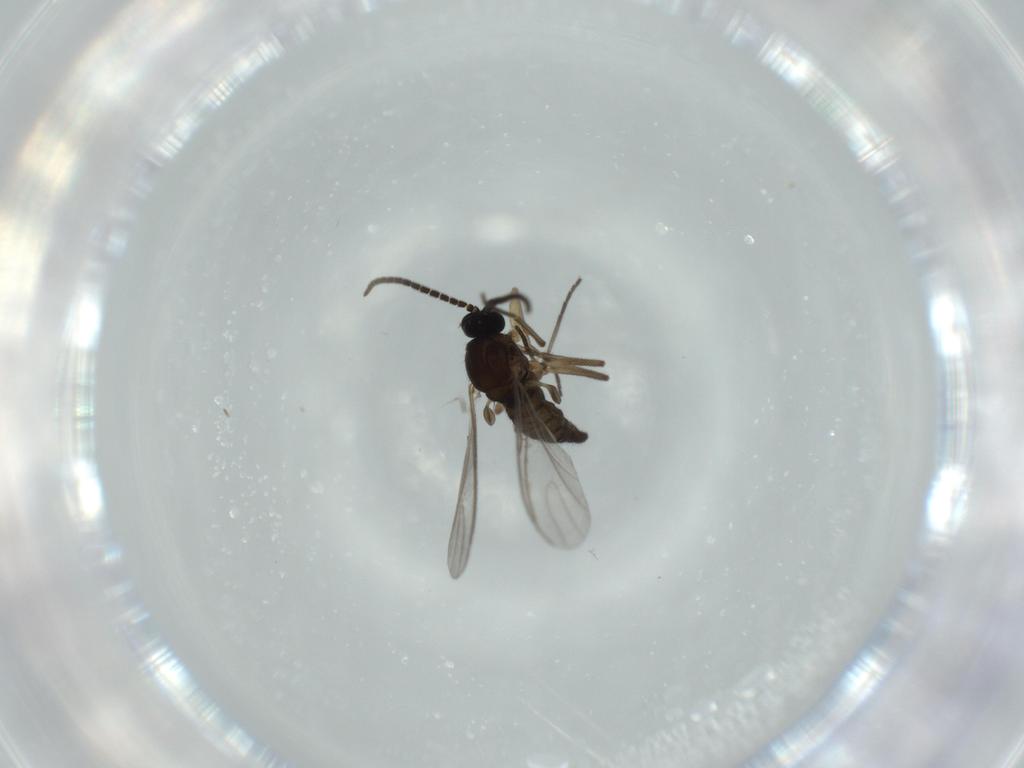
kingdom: Animalia
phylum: Arthropoda
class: Insecta
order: Diptera
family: Sciaridae
